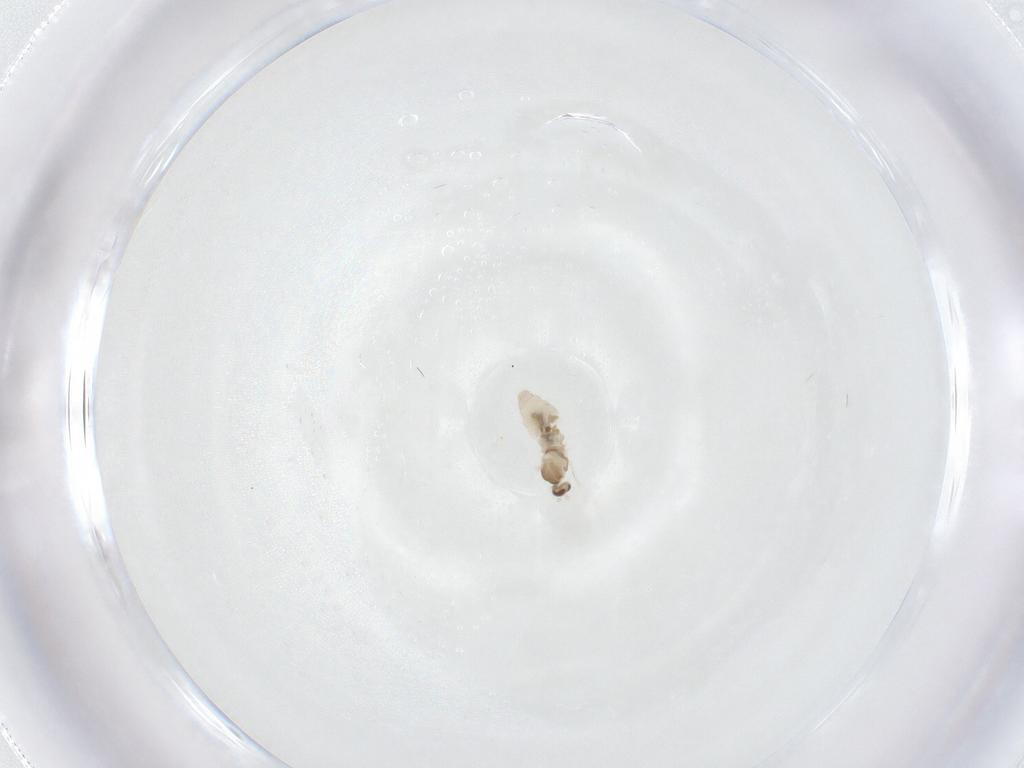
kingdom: Animalia
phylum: Arthropoda
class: Insecta
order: Diptera
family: Cecidomyiidae
